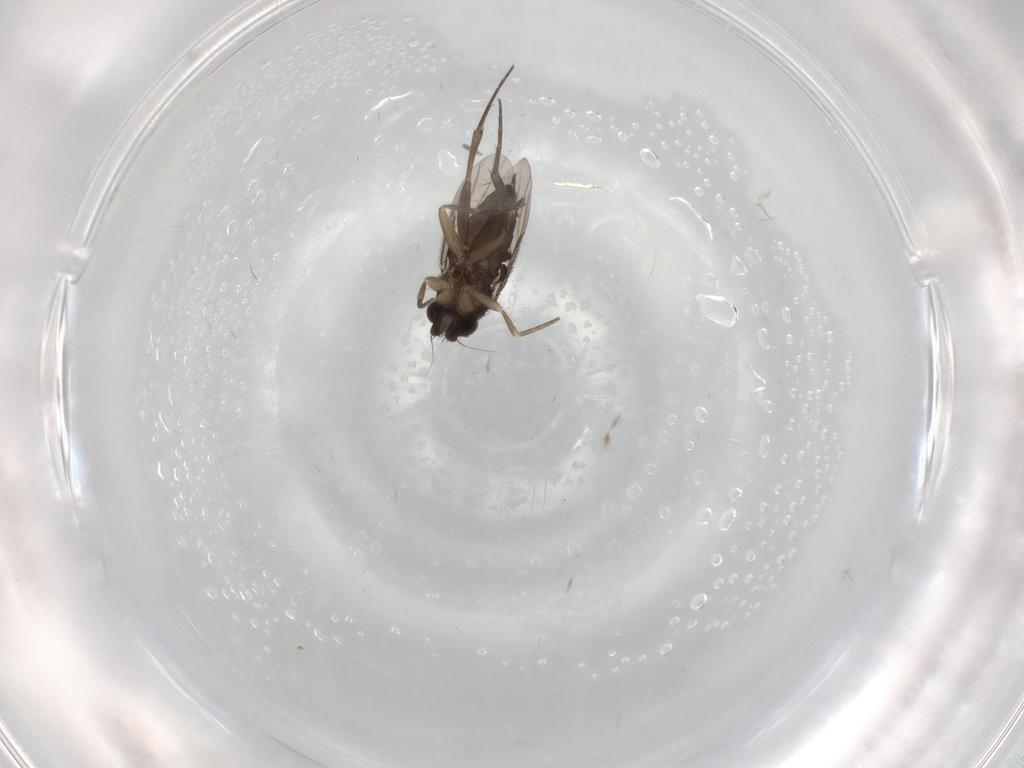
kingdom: Animalia
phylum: Arthropoda
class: Insecta
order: Diptera
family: Phoridae
